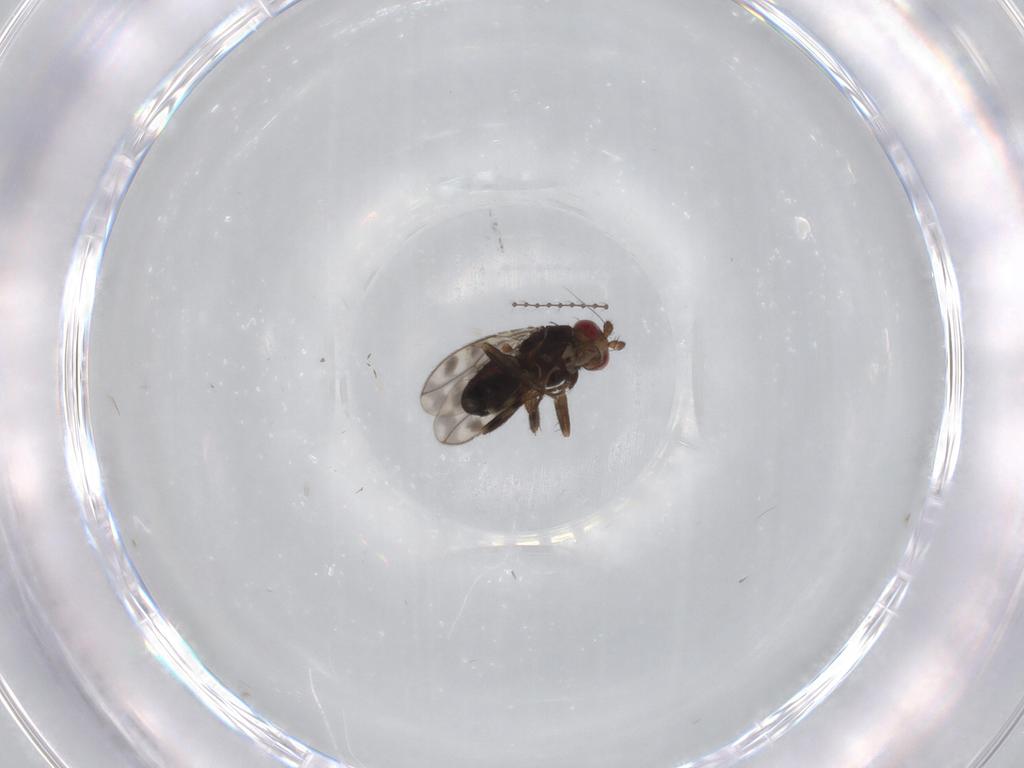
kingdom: Animalia
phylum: Arthropoda
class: Insecta
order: Diptera
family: Sphaeroceridae
